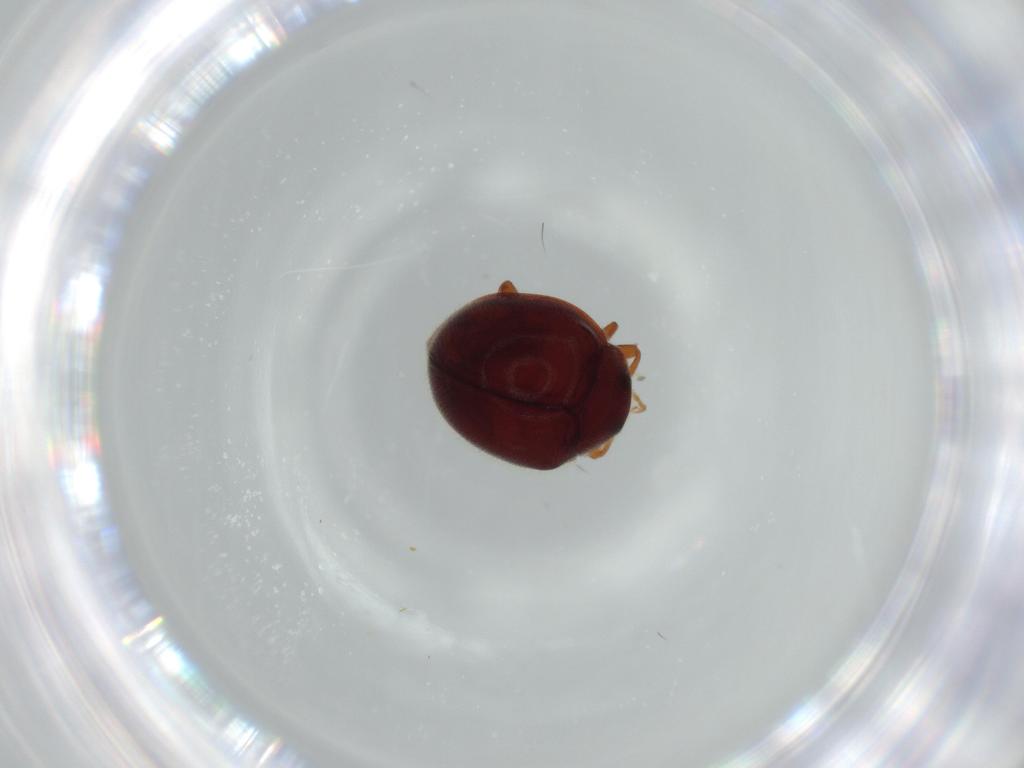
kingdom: Animalia
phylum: Arthropoda
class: Insecta
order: Coleoptera
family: Coccinellidae
